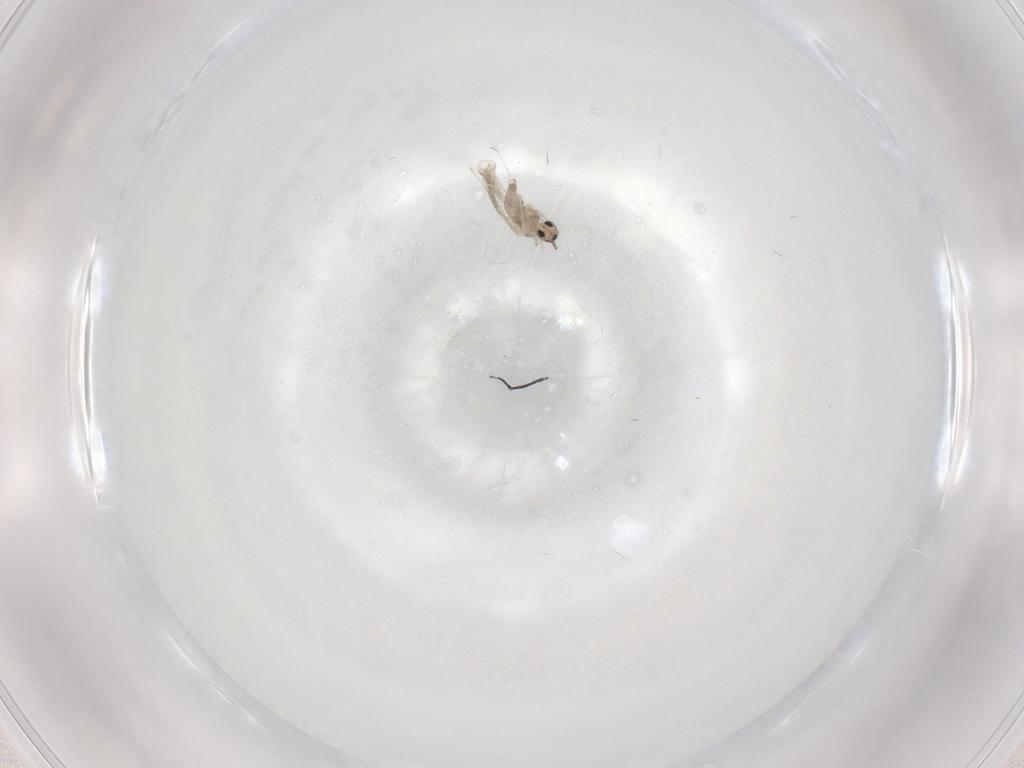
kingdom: Animalia
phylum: Arthropoda
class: Insecta
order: Diptera
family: Cecidomyiidae
